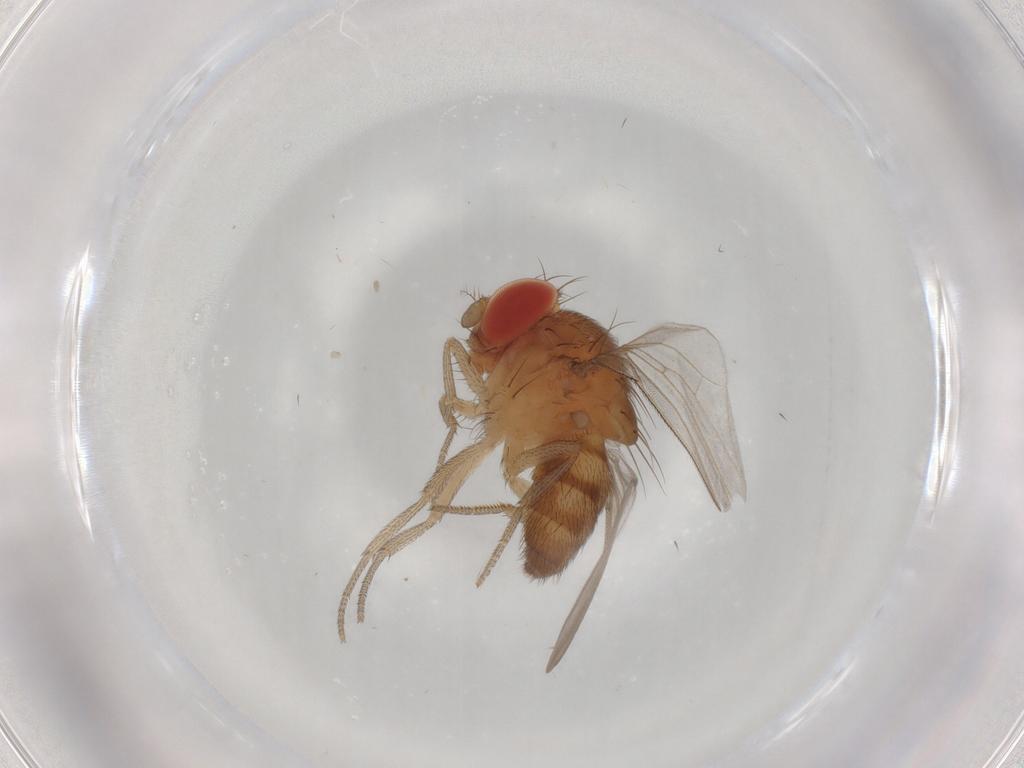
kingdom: Animalia
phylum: Arthropoda
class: Insecta
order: Diptera
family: Drosophilidae
